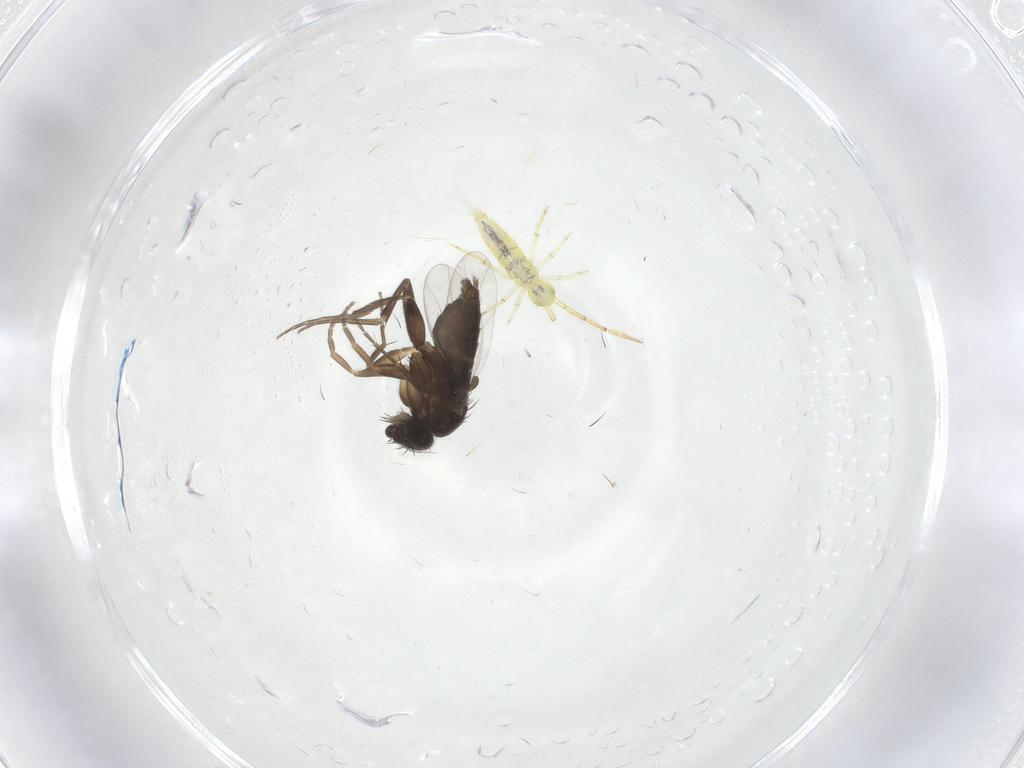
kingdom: Animalia
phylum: Arthropoda
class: Insecta
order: Diptera
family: Phoridae
